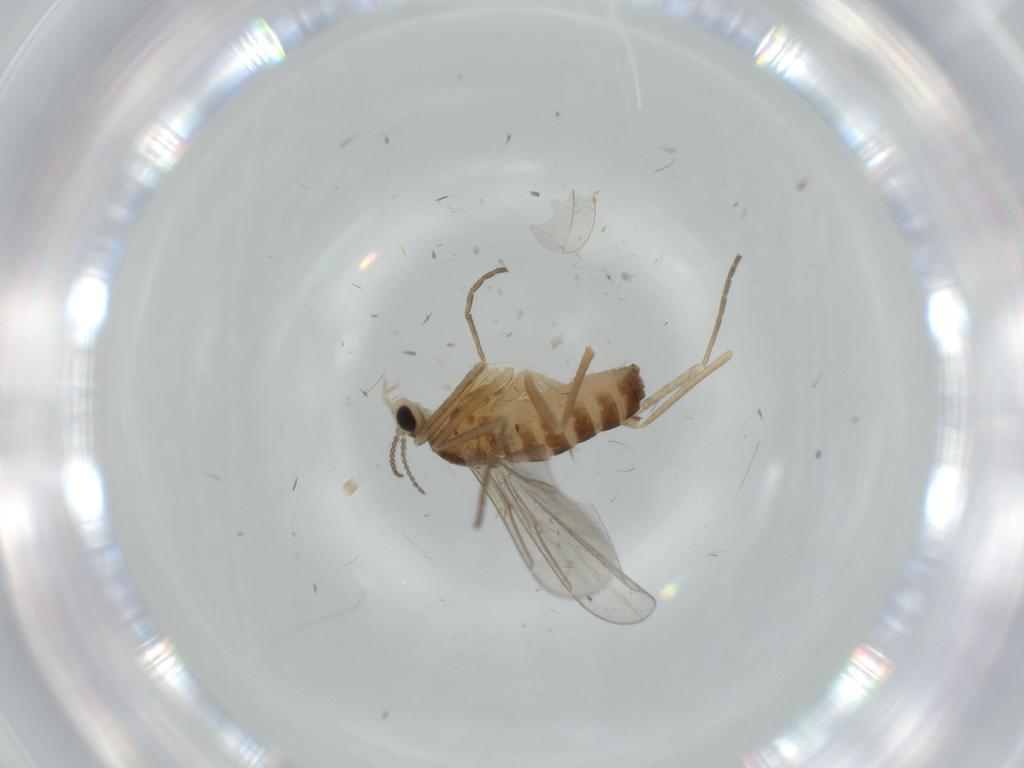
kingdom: Animalia
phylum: Arthropoda
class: Insecta
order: Diptera
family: Cecidomyiidae
